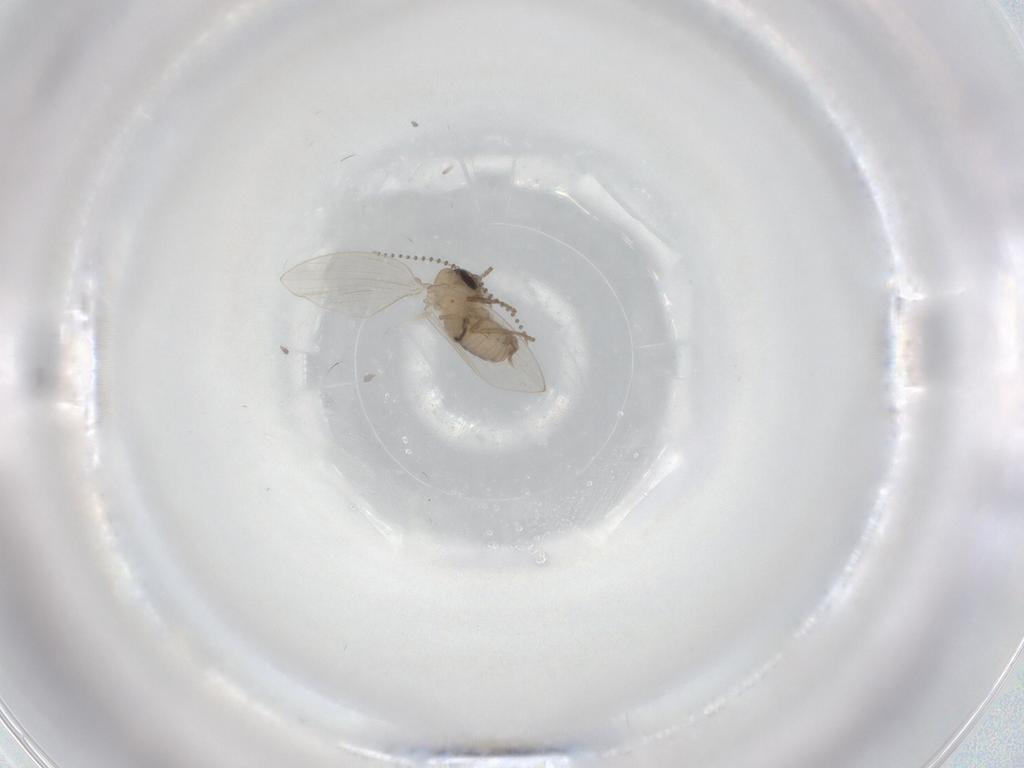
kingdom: Animalia
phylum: Arthropoda
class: Insecta
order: Diptera
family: Psychodidae
